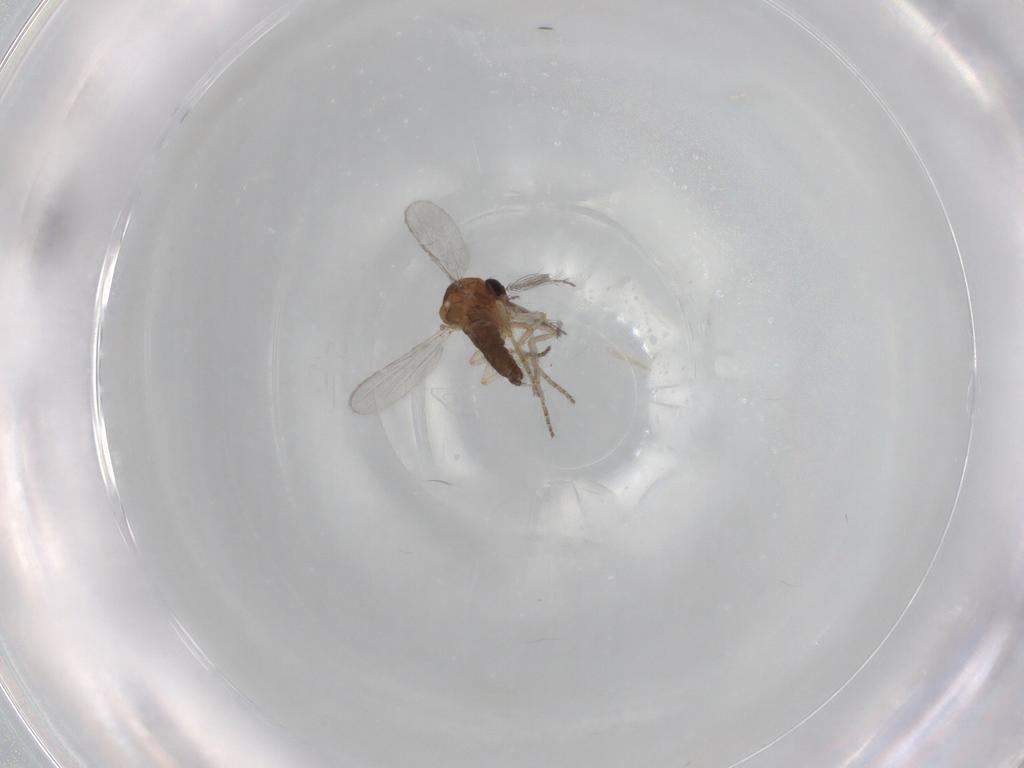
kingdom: Animalia
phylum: Arthropoda
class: Insecta
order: Diptera
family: Ceratopogonidae
